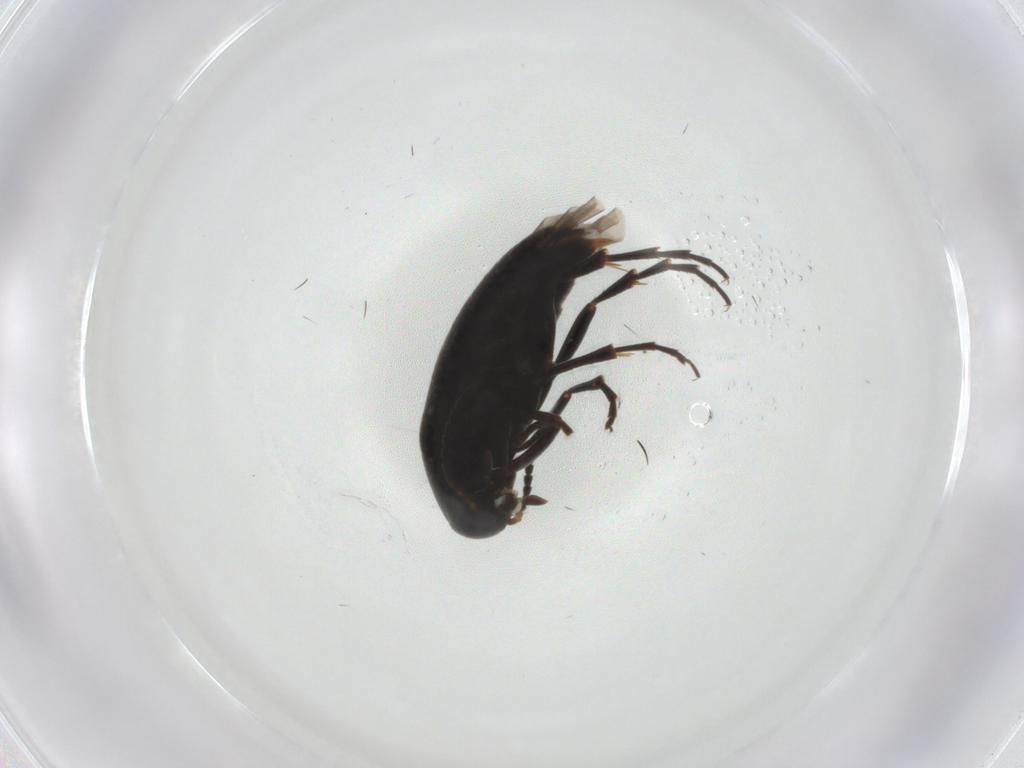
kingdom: Animalia
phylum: Arthropoda
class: Insecta
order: Coleoptera
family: Scraptiidae
